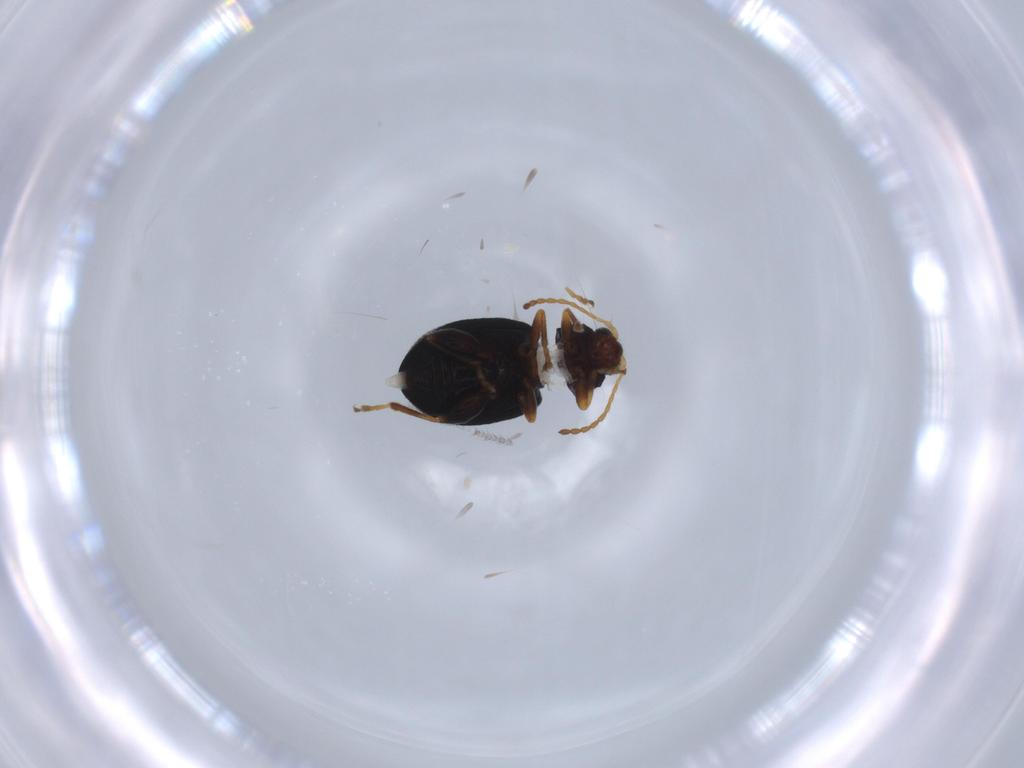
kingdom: Animalia
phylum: Arthropoda
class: Insecta
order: Coleoptera
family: Chrysomelidae
